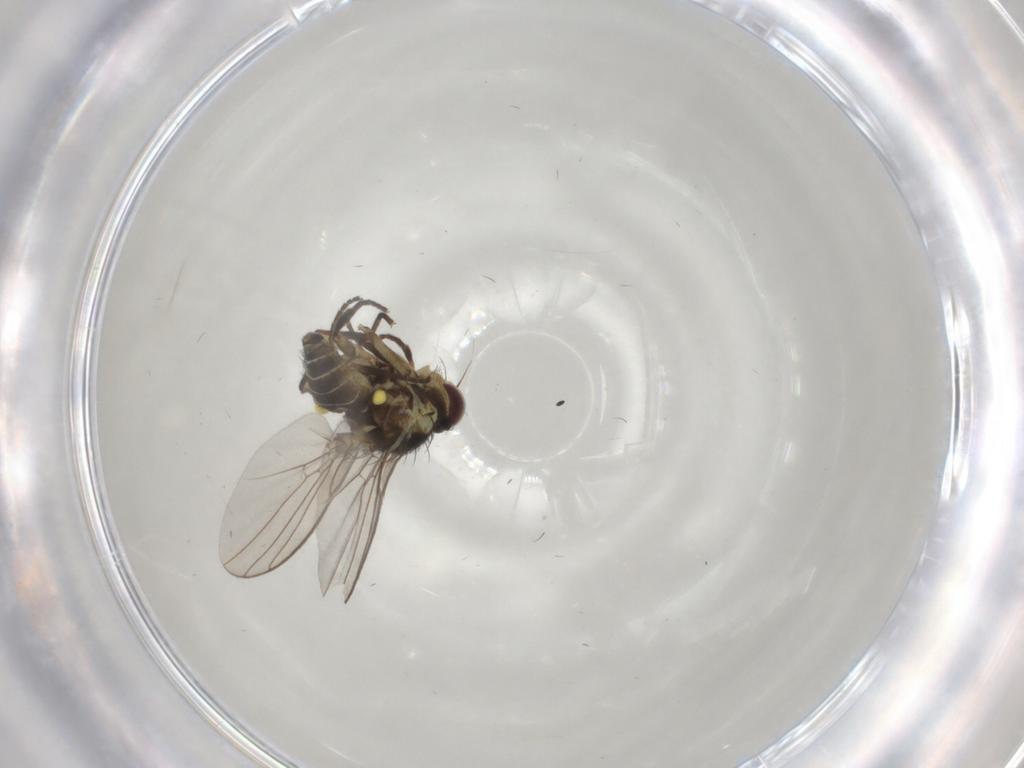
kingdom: Animalia
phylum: Arthropoda
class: Insecta
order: Diptera
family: Agromyzidae
